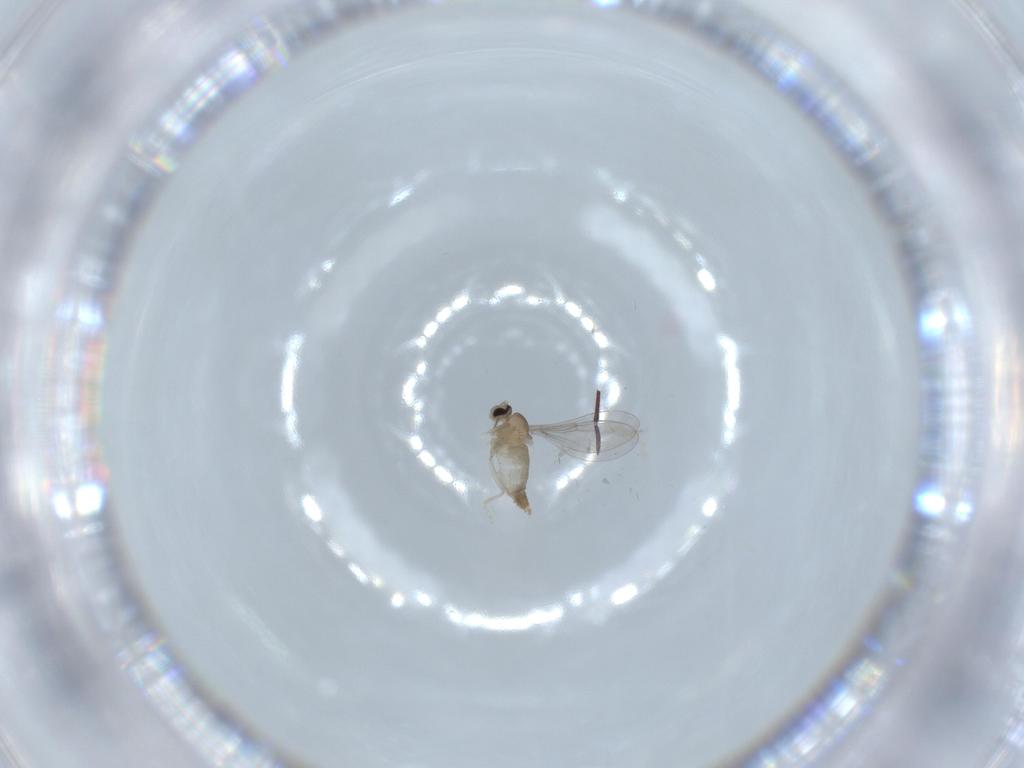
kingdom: Animalia
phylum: Arthropoda
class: Insecta
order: Diptera
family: Cecidomyiidae
